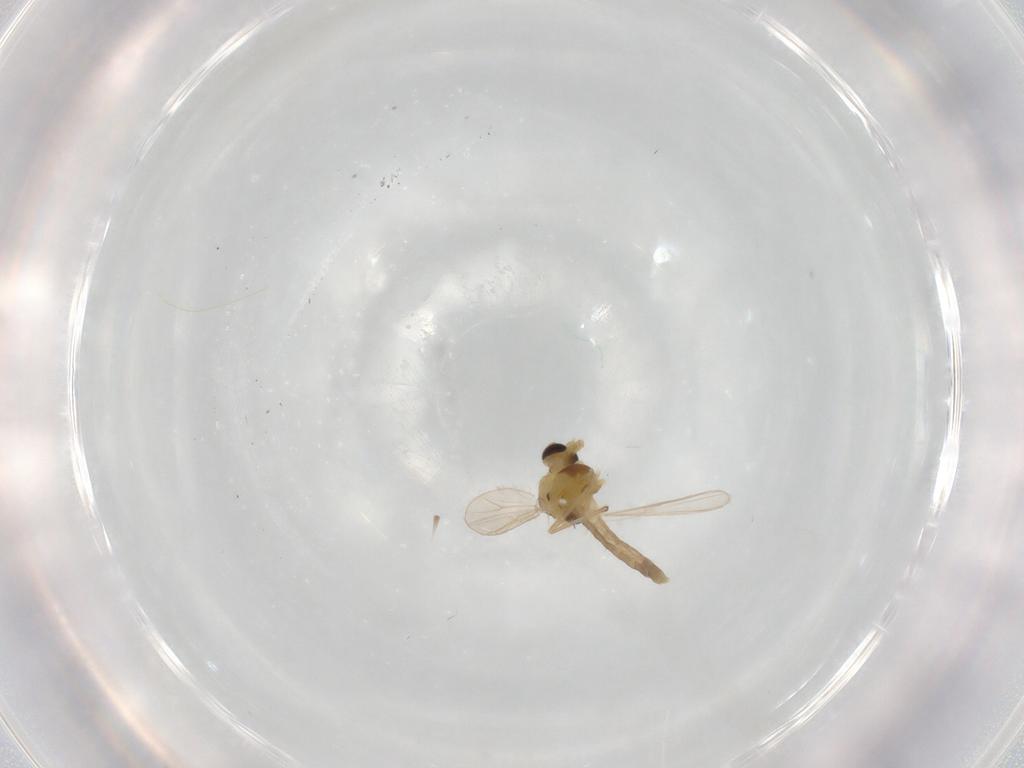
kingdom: Animalia
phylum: Arthropoda
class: Insecta
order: Diptera
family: Chironomidae
